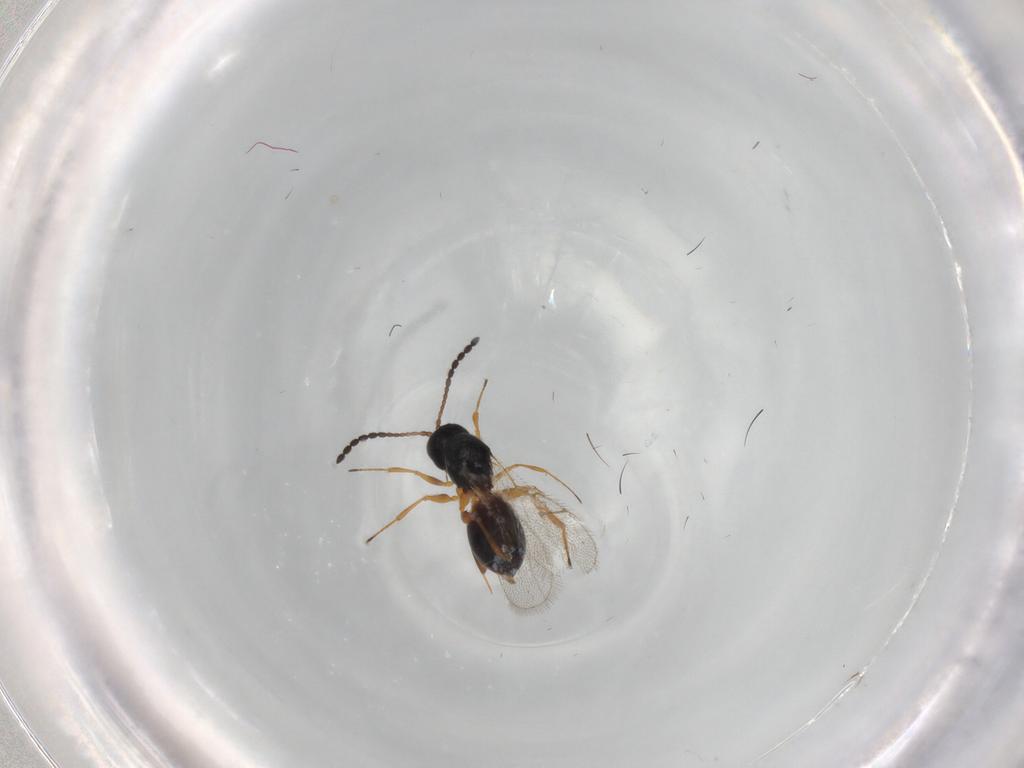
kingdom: Animalia
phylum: Arthropoda
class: Insecta
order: Hymenoptera
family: Figitidae
